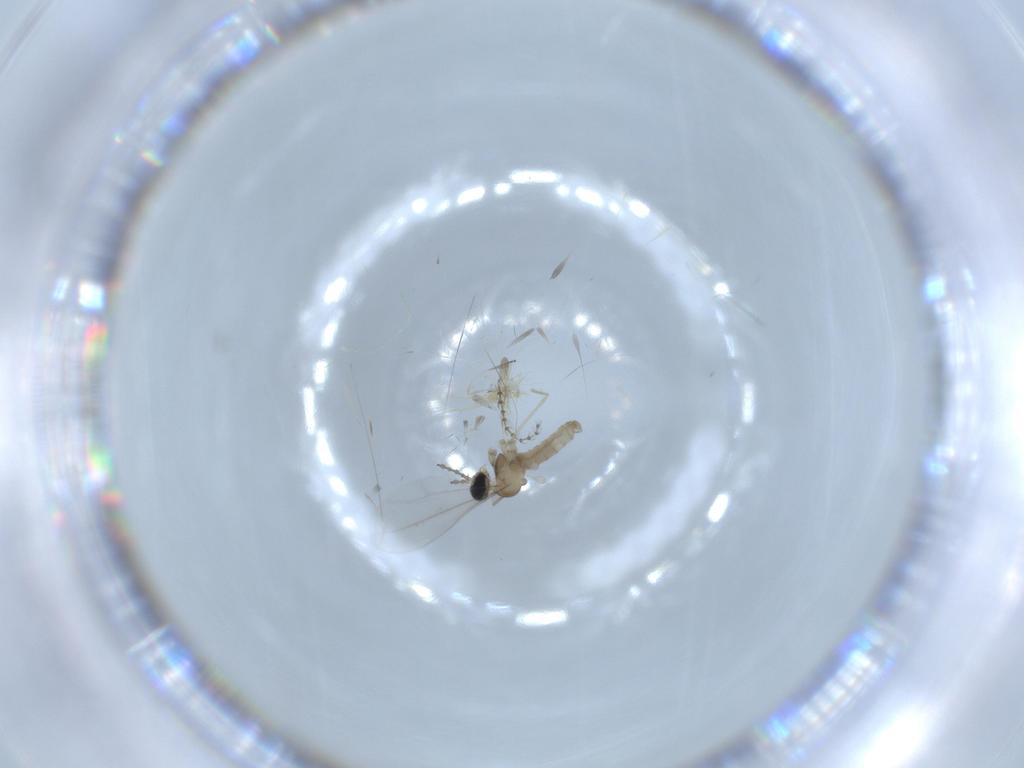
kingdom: Animalia
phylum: Arthropoda
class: Insecta
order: Diptera
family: Cecidomyiidae
